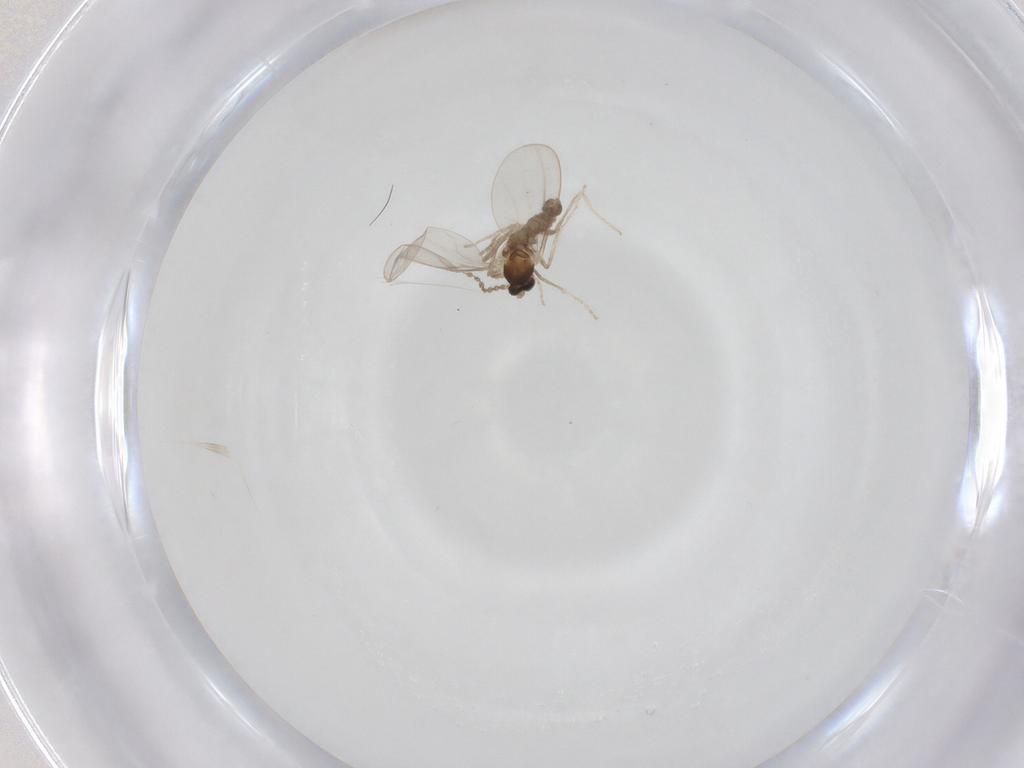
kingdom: Animalia
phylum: Arthropoda
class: Insecta
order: Diptera
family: Cecidomyiidae
